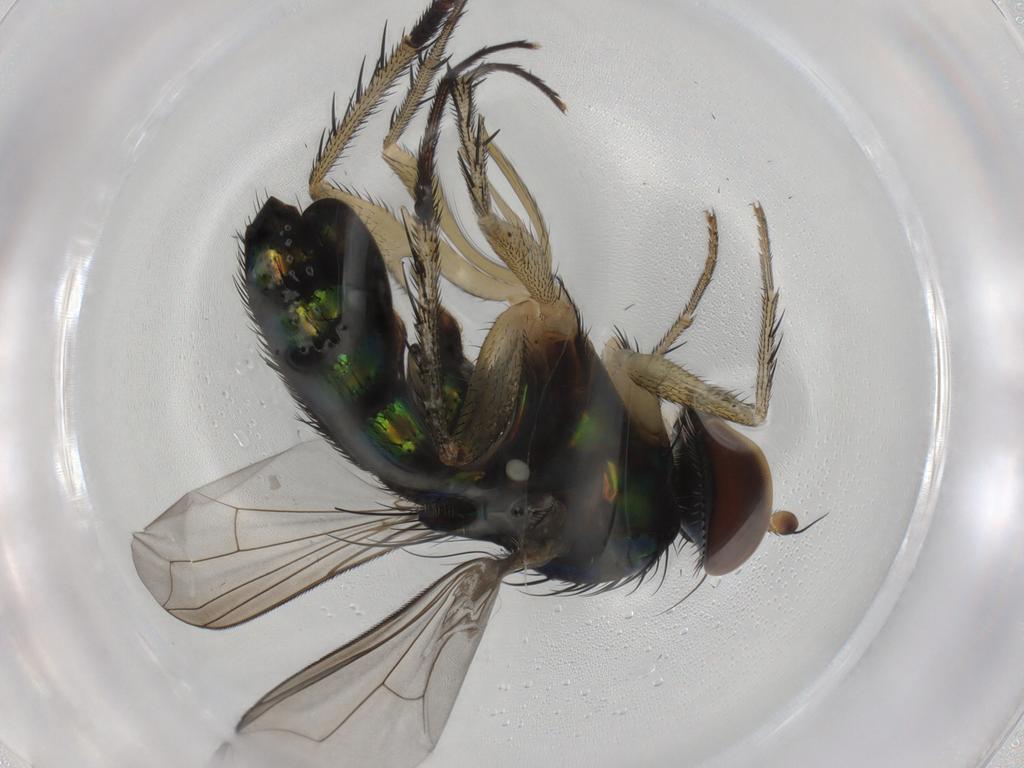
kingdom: Animalia
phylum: Arthropoda
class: Insecta
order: Diptera
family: Dolichopodidae
